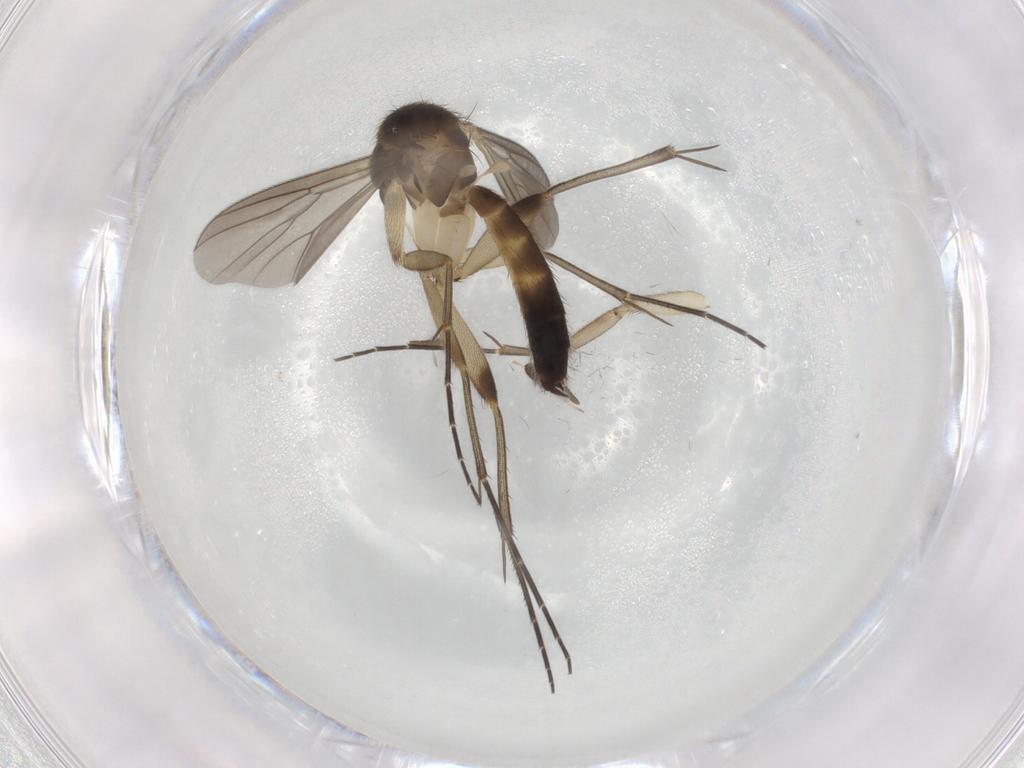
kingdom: Animalia
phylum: Arthropoda
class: Insecta
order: Diptera
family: Mycetophilidae
